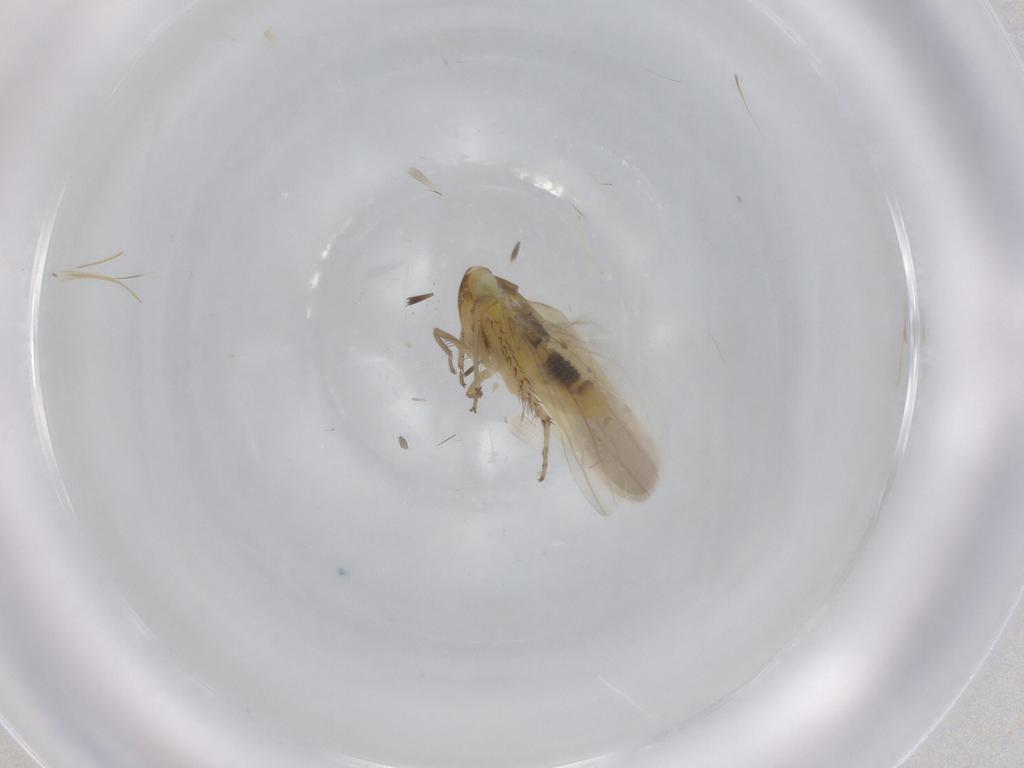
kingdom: Animalia
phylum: Arthropoda
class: Insecta
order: Hemiptera
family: Cicadellidae
